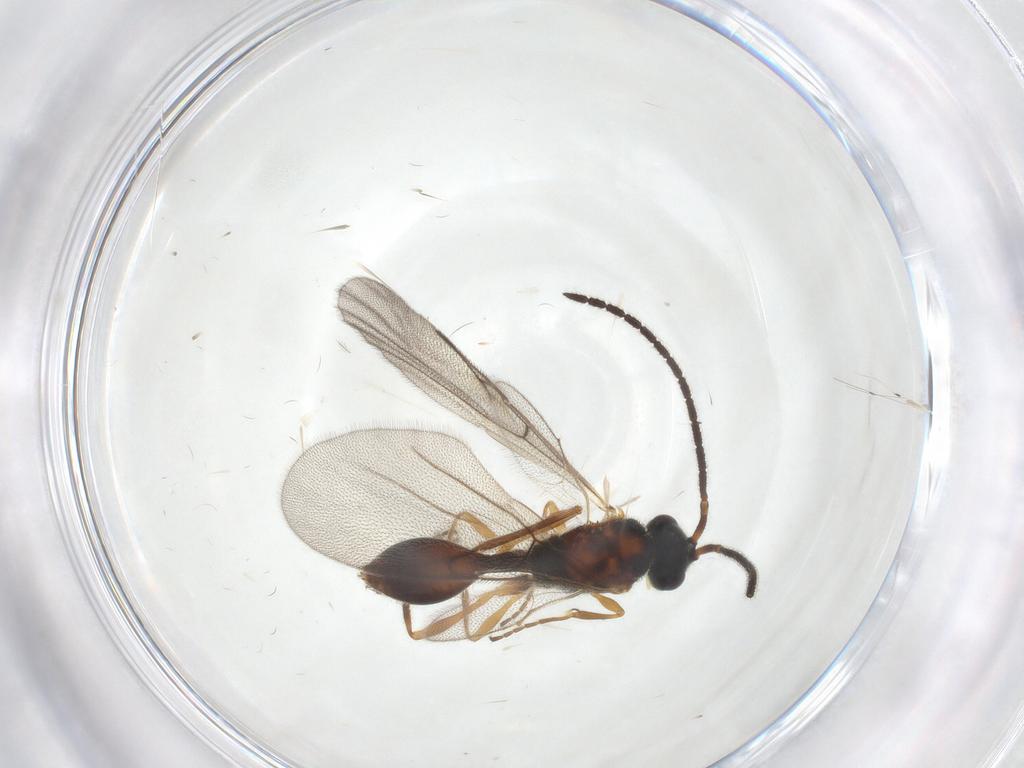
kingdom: Animalia
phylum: Arthropoda
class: Insecta
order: Hymenoptera
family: Diapriidae
